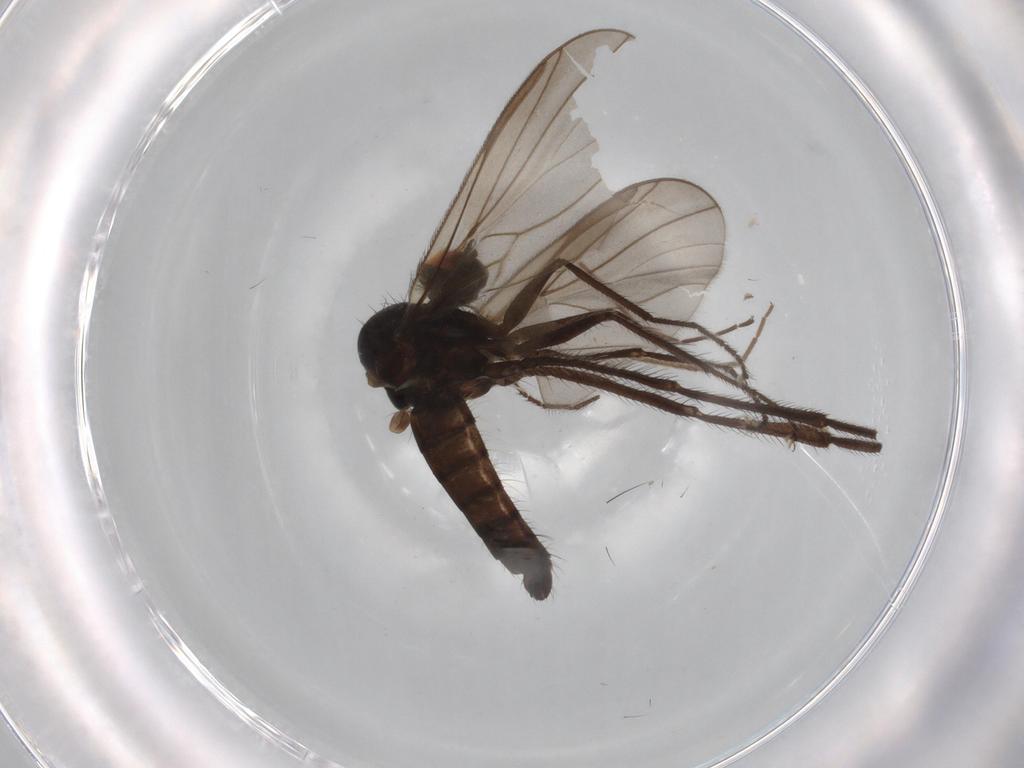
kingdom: Animalia
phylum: Arthropoda
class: Insecta
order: Diptera
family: Hybotidae
